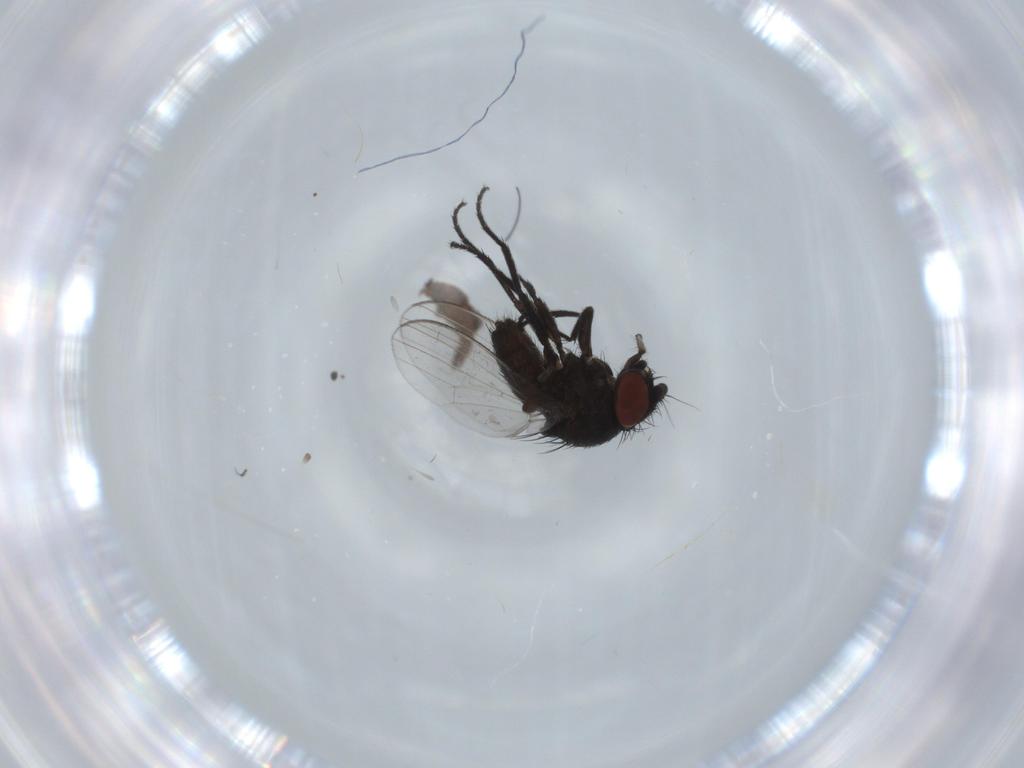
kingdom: Animalia
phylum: Arthropoda
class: Insecta
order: Diptera
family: Milichiidae
